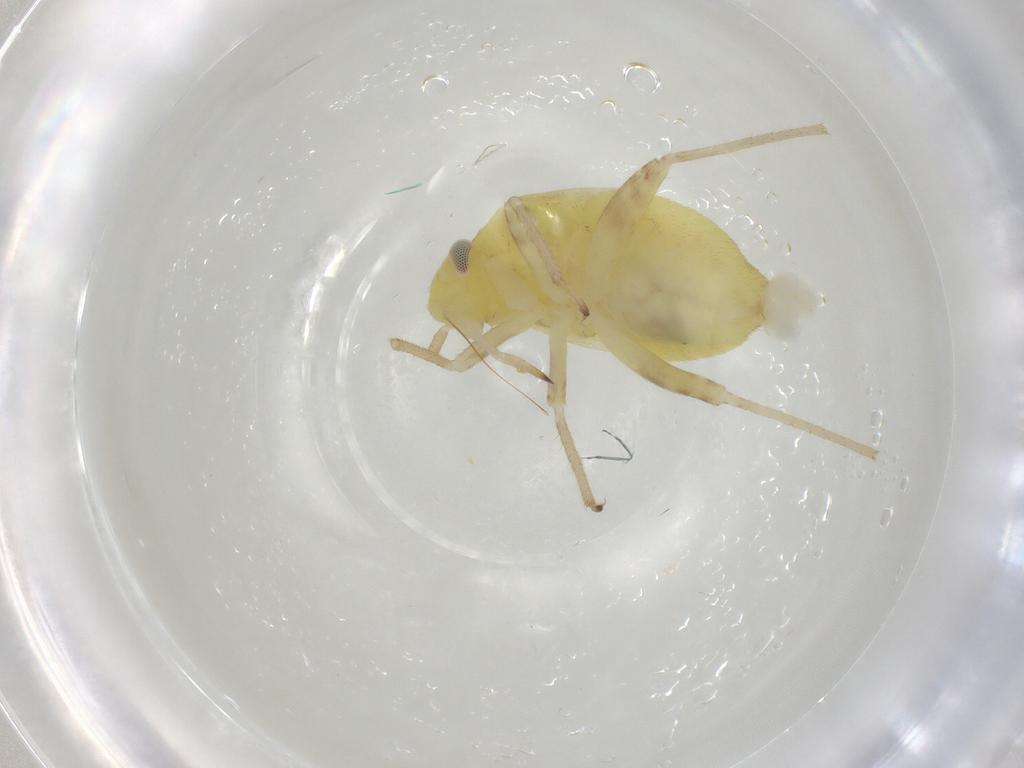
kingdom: Animalia
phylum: Arthropoda
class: Insecta
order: Hemiptera
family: Aphrophoridae
